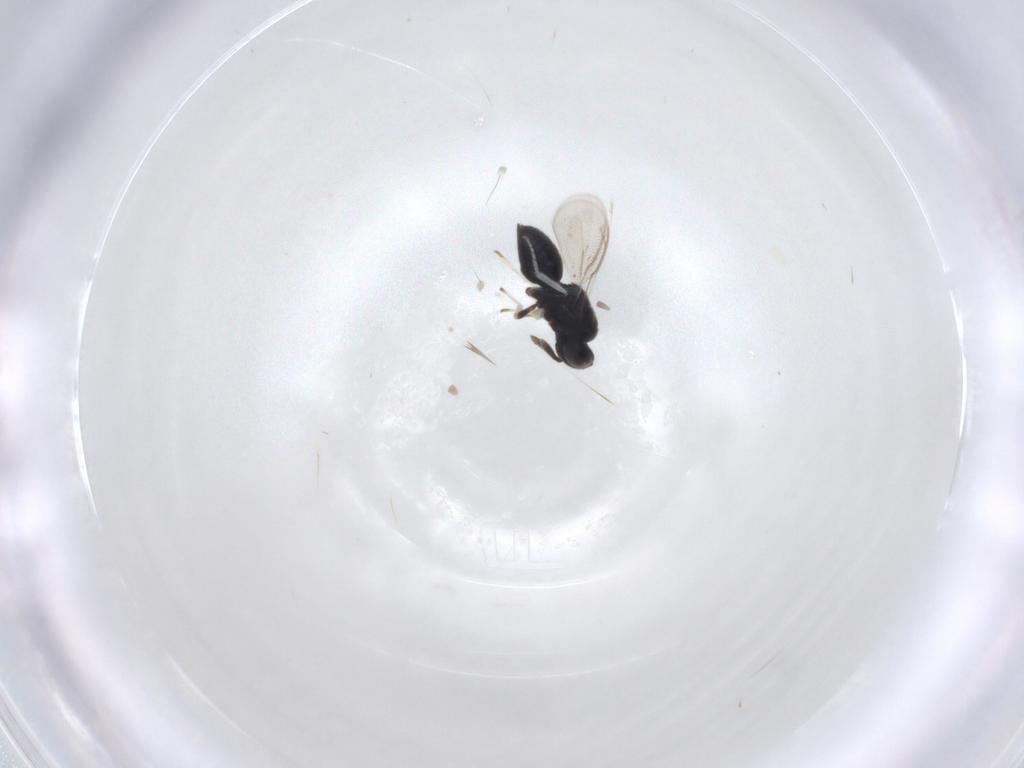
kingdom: Animalia
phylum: Arthropoda
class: Insecta
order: Hymenoptera
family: Herbertiidae
